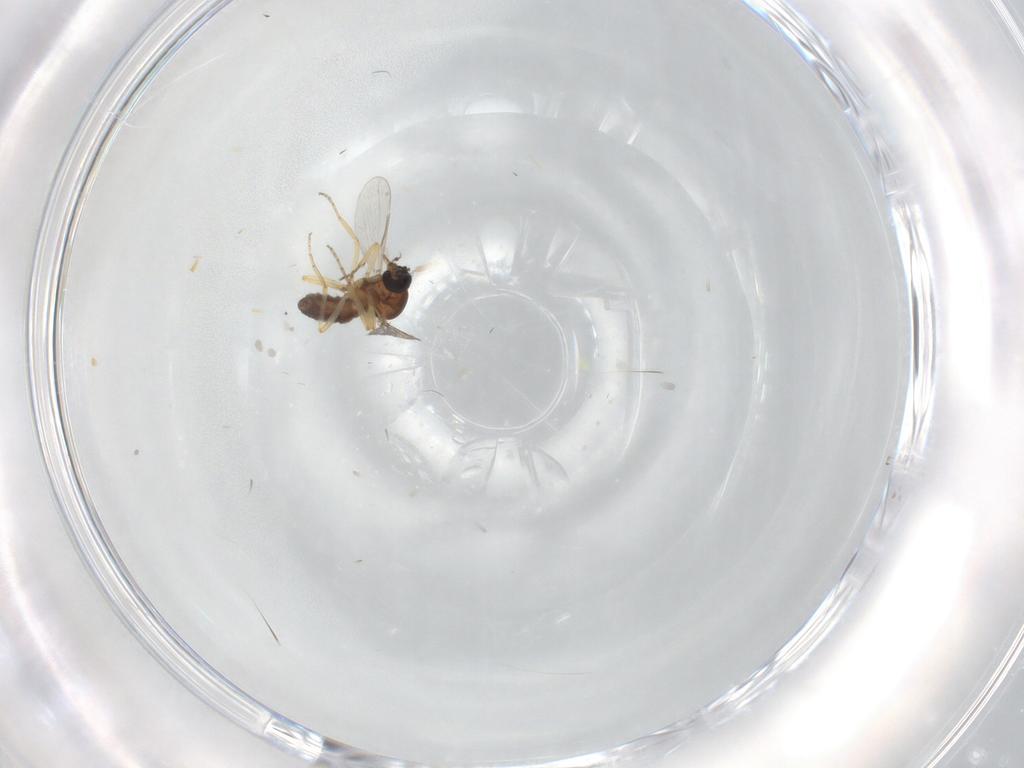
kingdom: Animalia
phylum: Arthropoda
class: Insecta
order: Diptera
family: Ceratopogonidae
